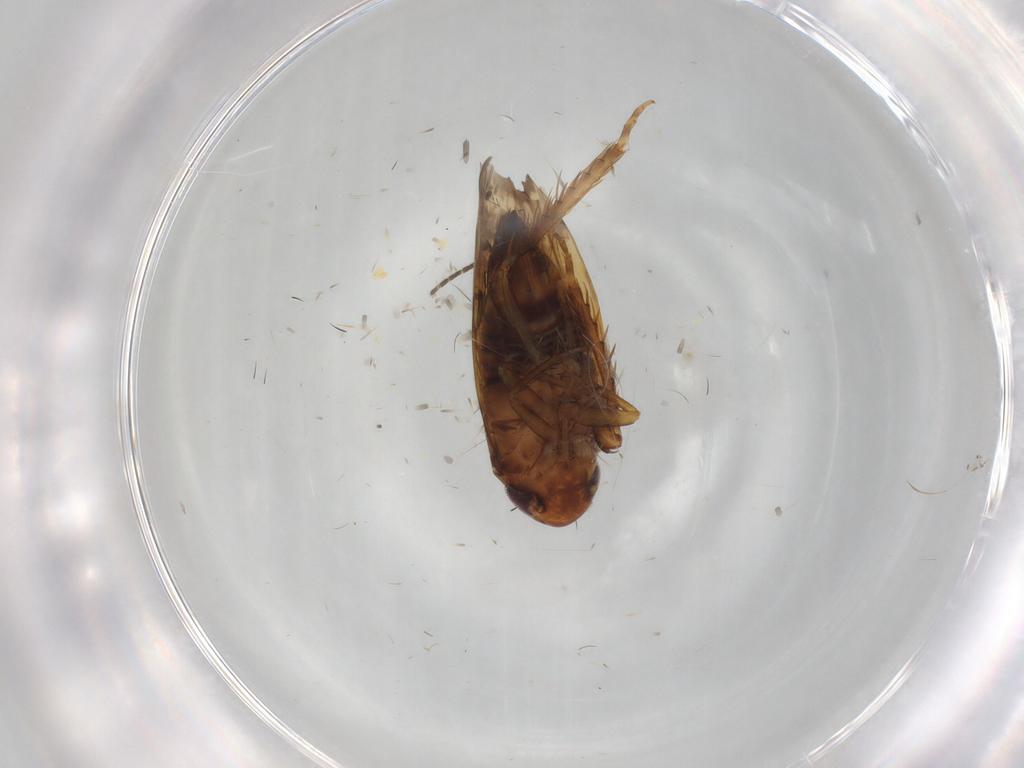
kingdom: Animalia
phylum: Arthropoda
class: Insecta
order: Hemiptera
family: Cicadellidae
